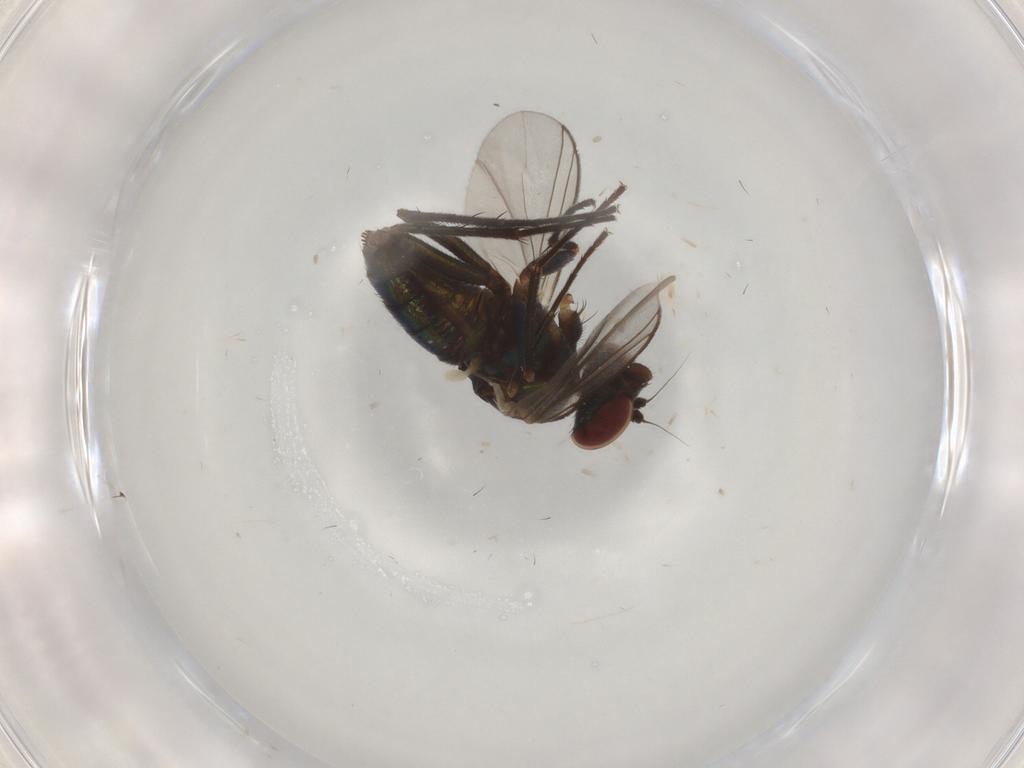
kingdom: Animalia
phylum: Arthropoda
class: Insecta
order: Diptera
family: Dolichopodidae
